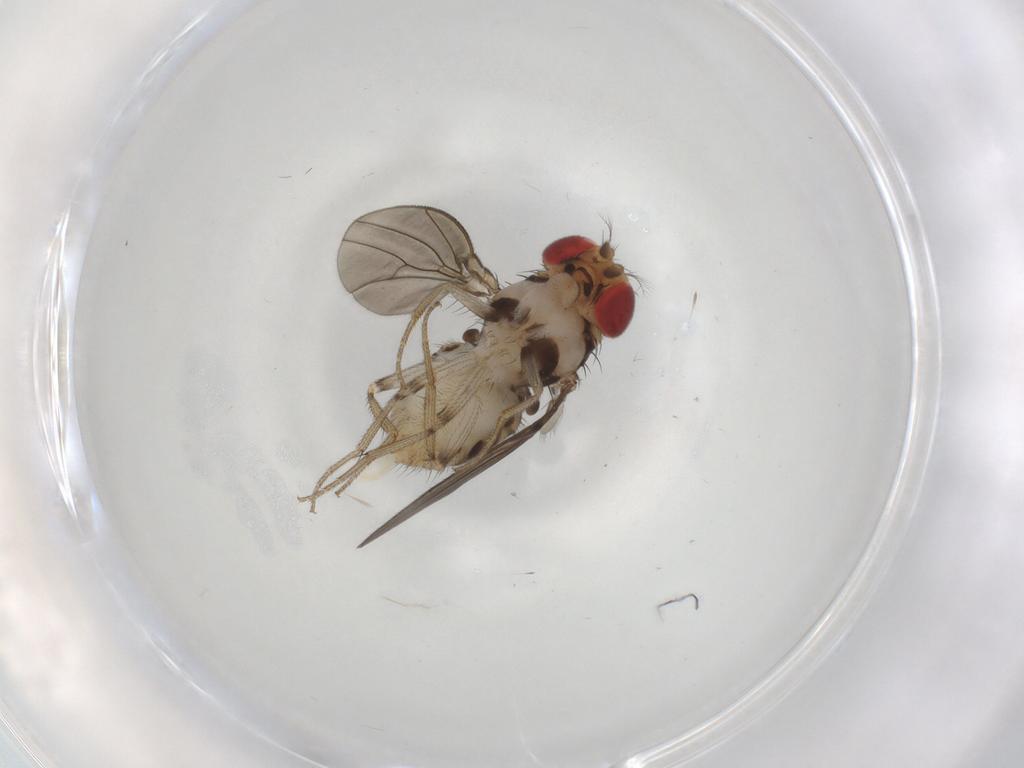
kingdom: Animalia
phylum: Arthropoda
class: Insecta
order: Diptera
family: Drosophilidae
